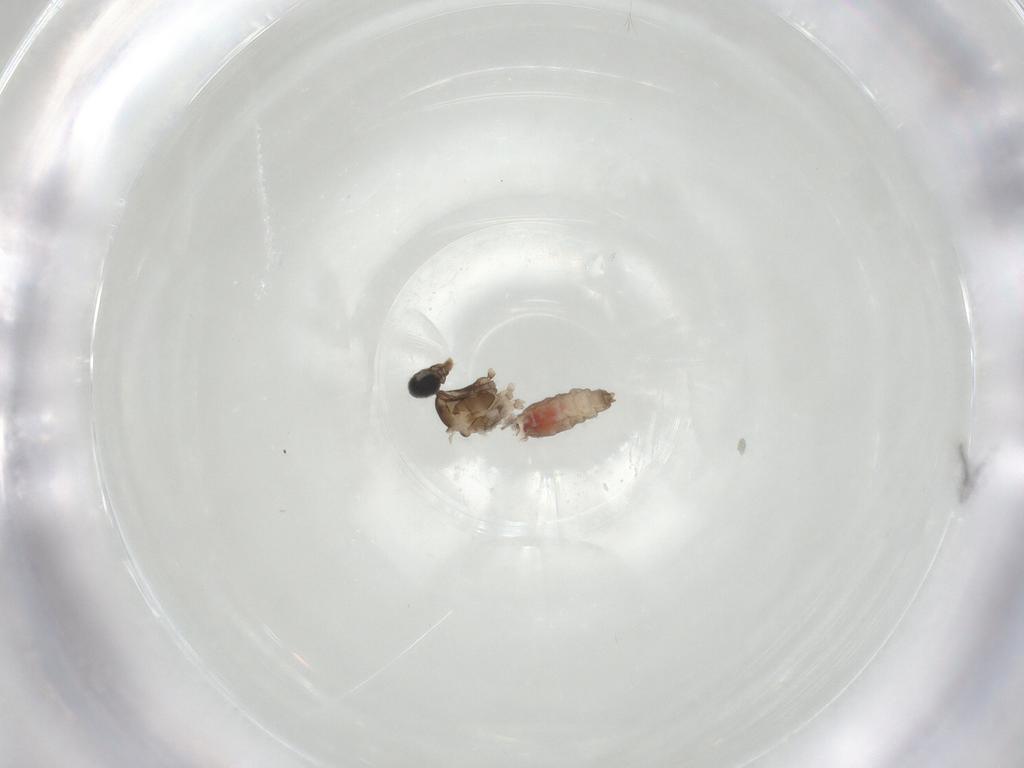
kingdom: Animalia
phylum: Arthropoda
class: Insecta
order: Diptera
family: Cecidomyiidae
